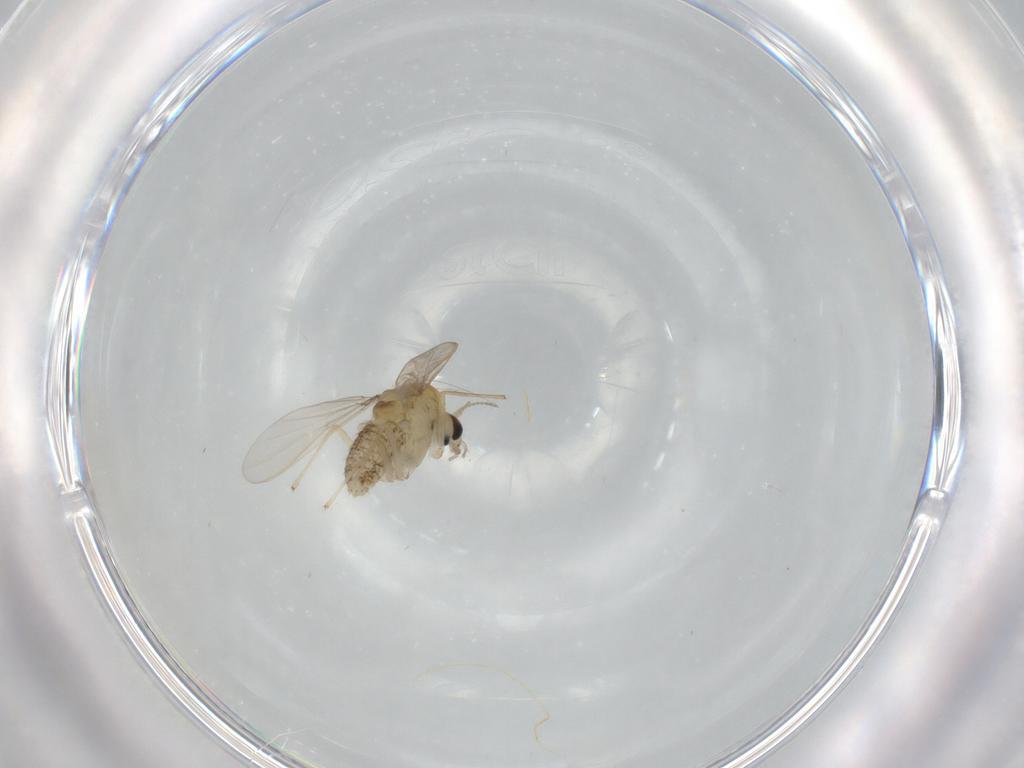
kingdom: Animalia
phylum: Arthropoda
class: Insecta
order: Diptera
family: Chironomidae
